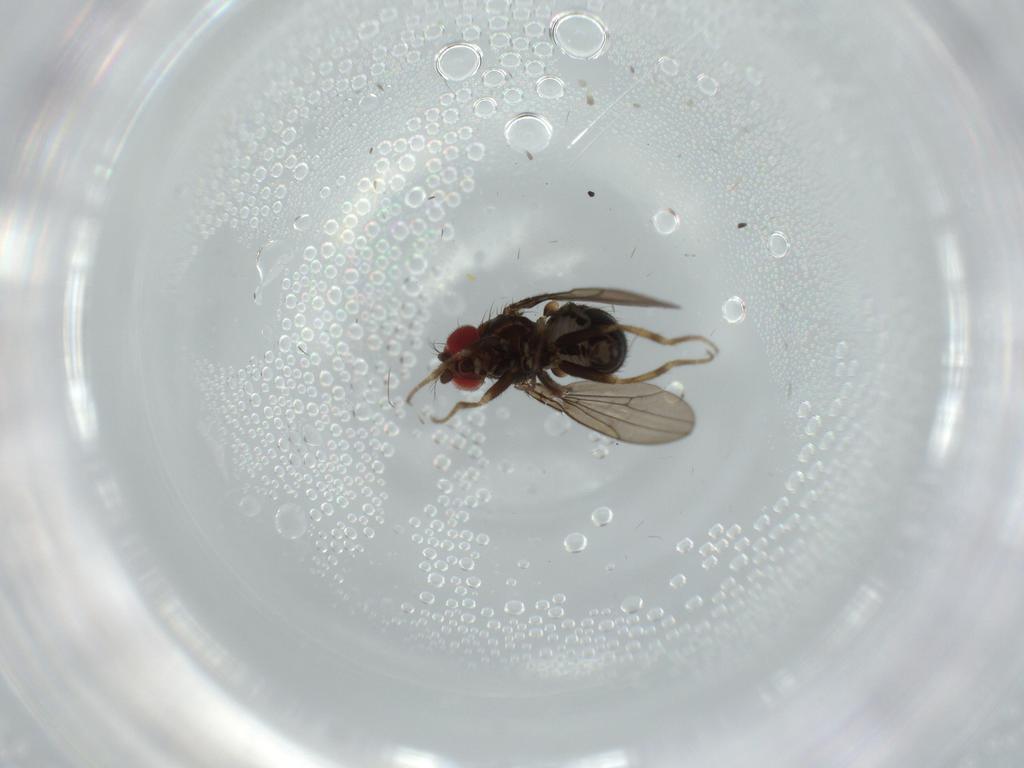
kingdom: Animalia
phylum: Arthropoda
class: Insecta
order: Diptera
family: Drosophilidae
